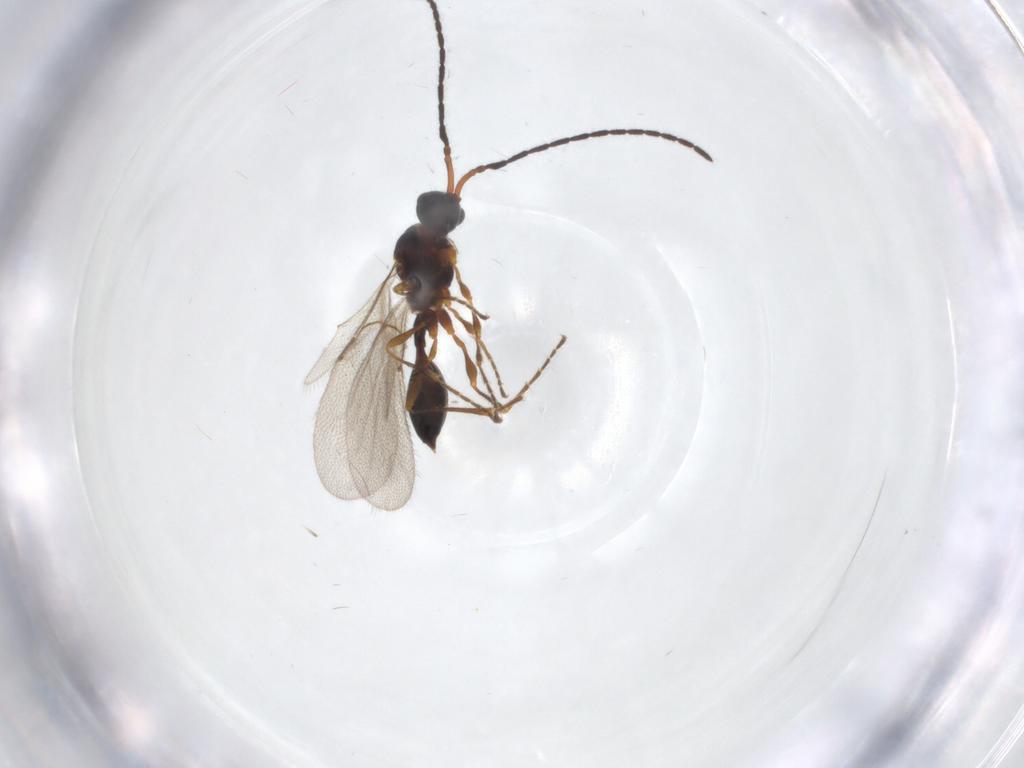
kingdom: Animalia
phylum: Arthropoda
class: Insecta
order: Hymenoptera
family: Diapriidae
